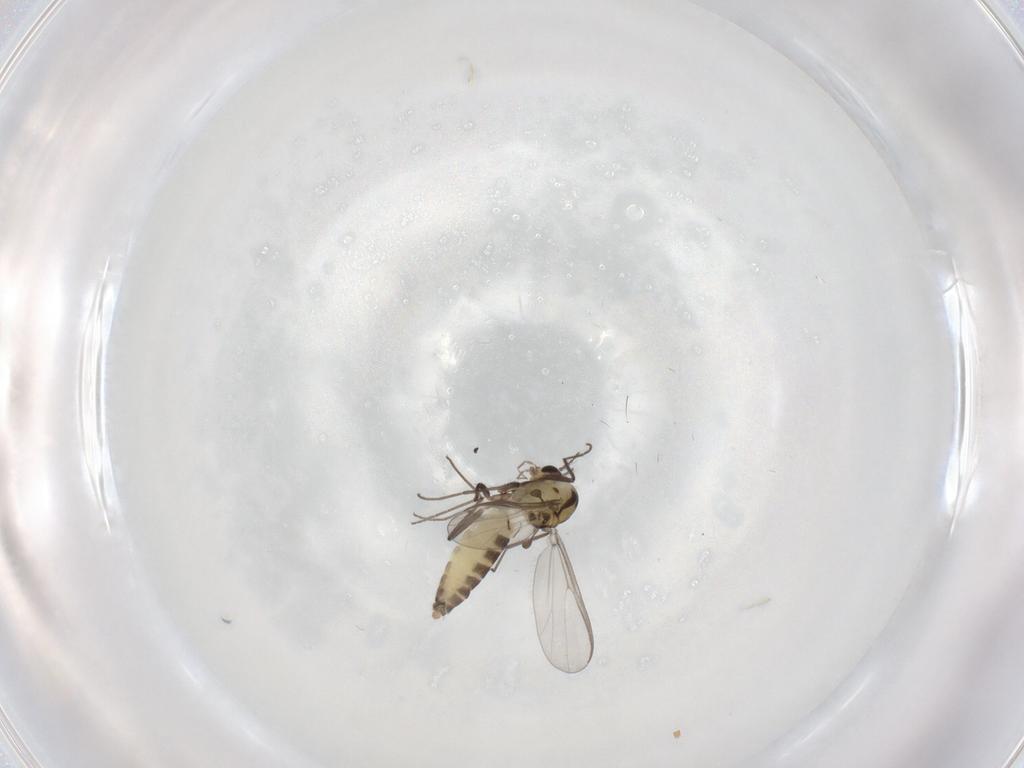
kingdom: Animalia
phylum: Arthropoda
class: Insecta
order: Diptera
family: Chironomidae
